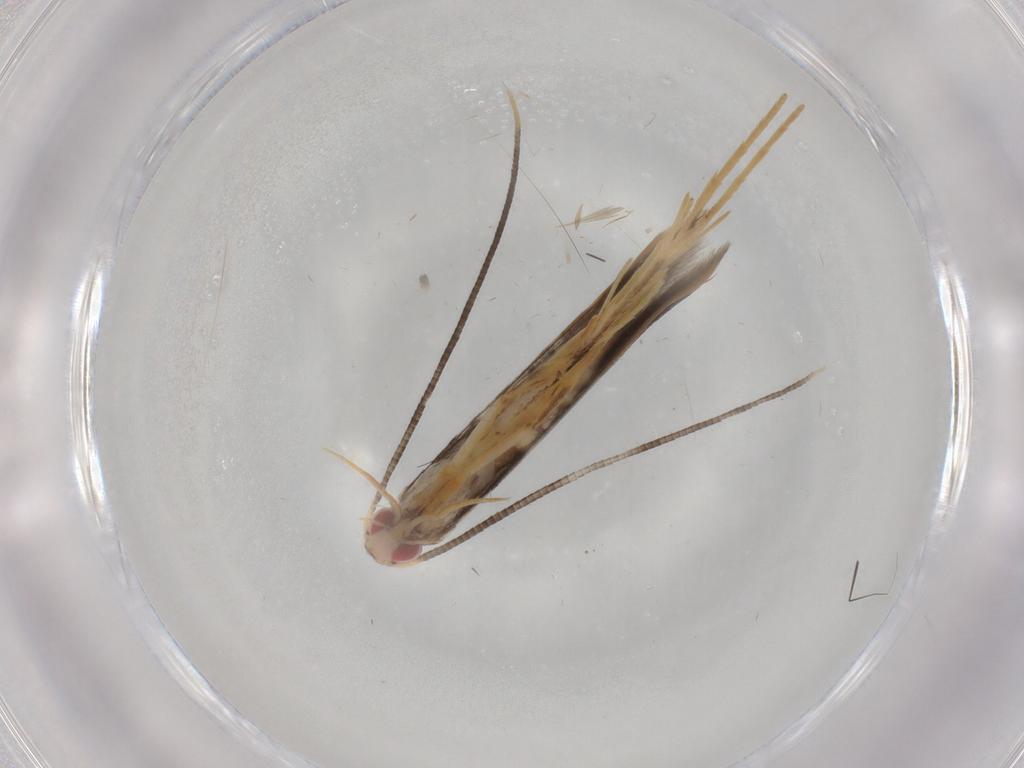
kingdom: Animalia
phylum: Arthropoda
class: Insecta
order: Lepidoptera
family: Gracillariidae
